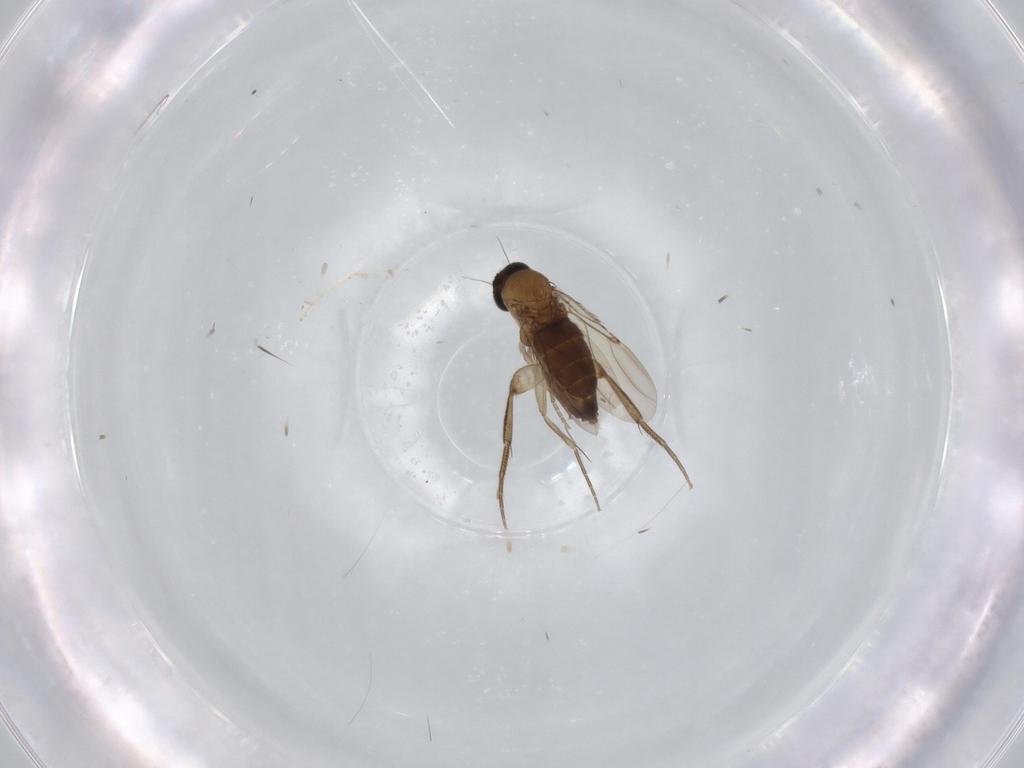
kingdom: Animalia
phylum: Arthropoda
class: Insecta
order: Diptera
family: Phoridae
